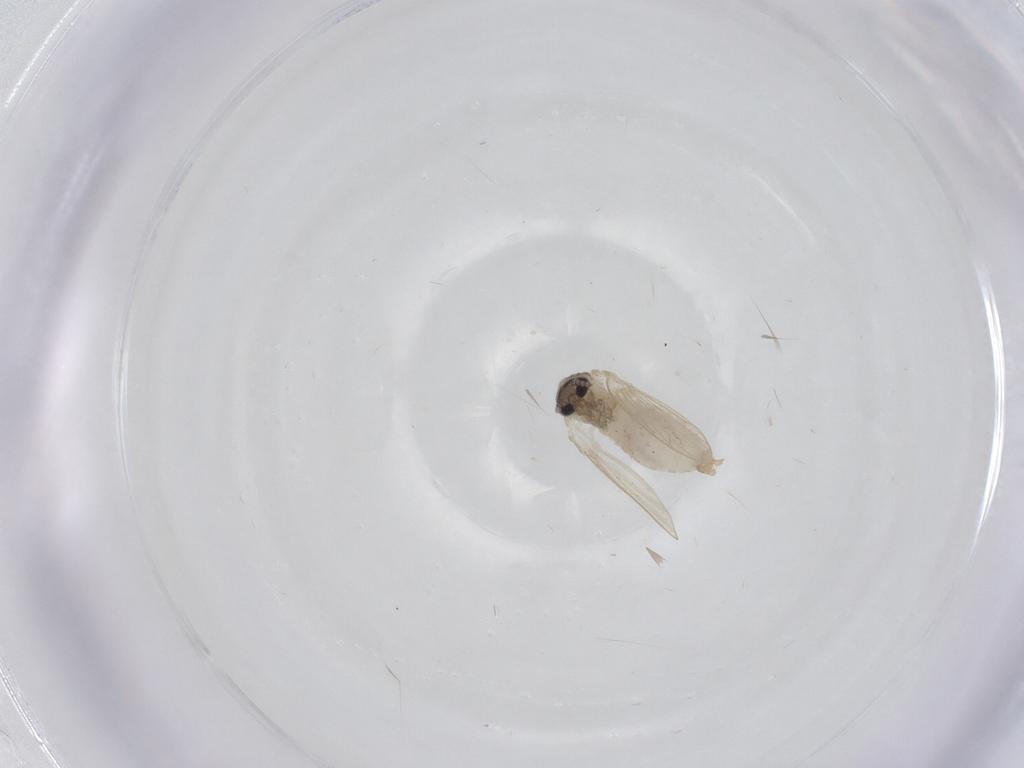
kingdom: Animalia
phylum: Arthropoda
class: Insecta
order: Diptera
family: Psychodidae
